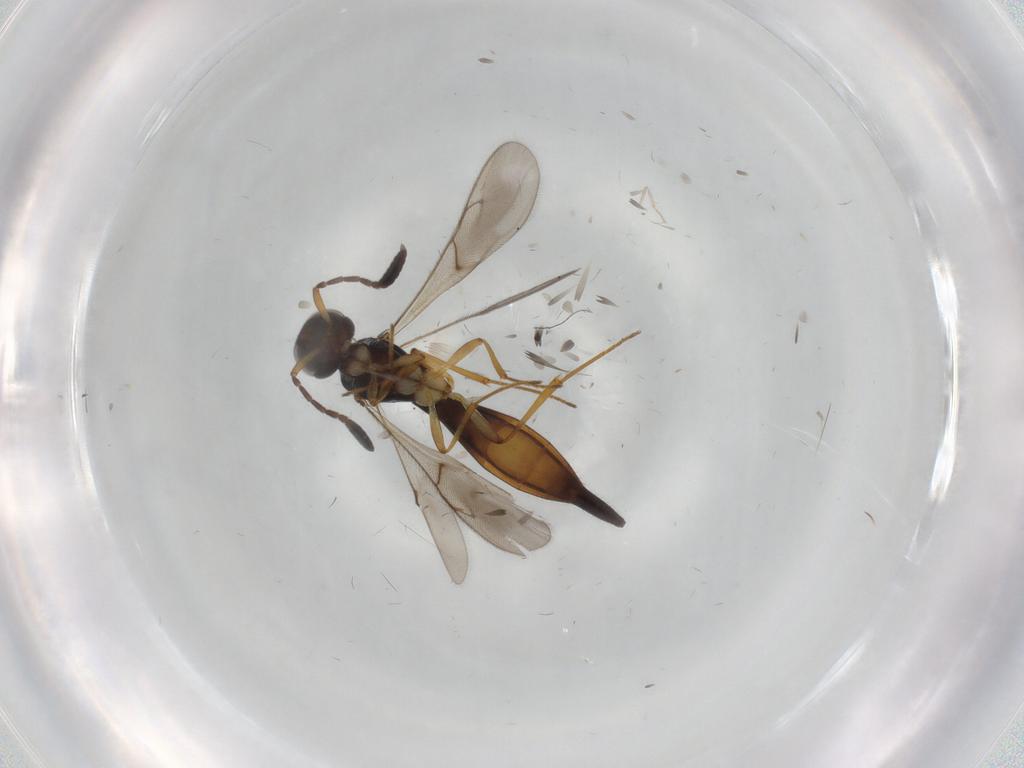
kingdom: Animalia
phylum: Arthropoda
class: Insecta
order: Hymenoptera
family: Formicidae
